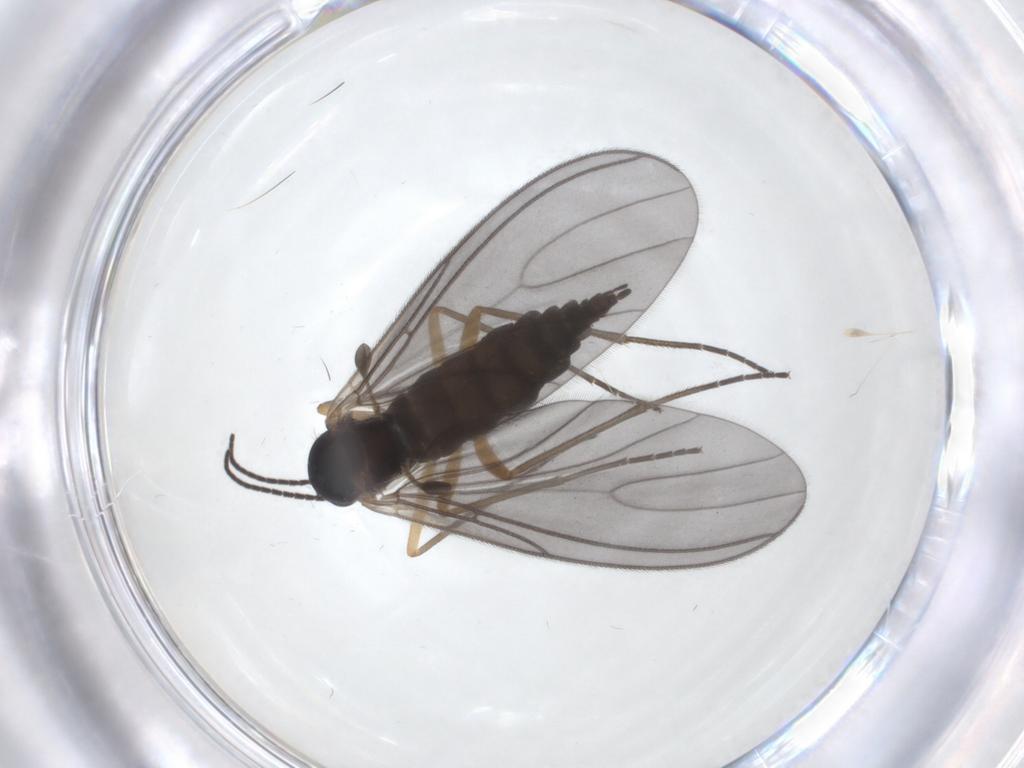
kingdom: Animalia
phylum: Arthropoda
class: Insecta
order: Diptera
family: Sciaridae
